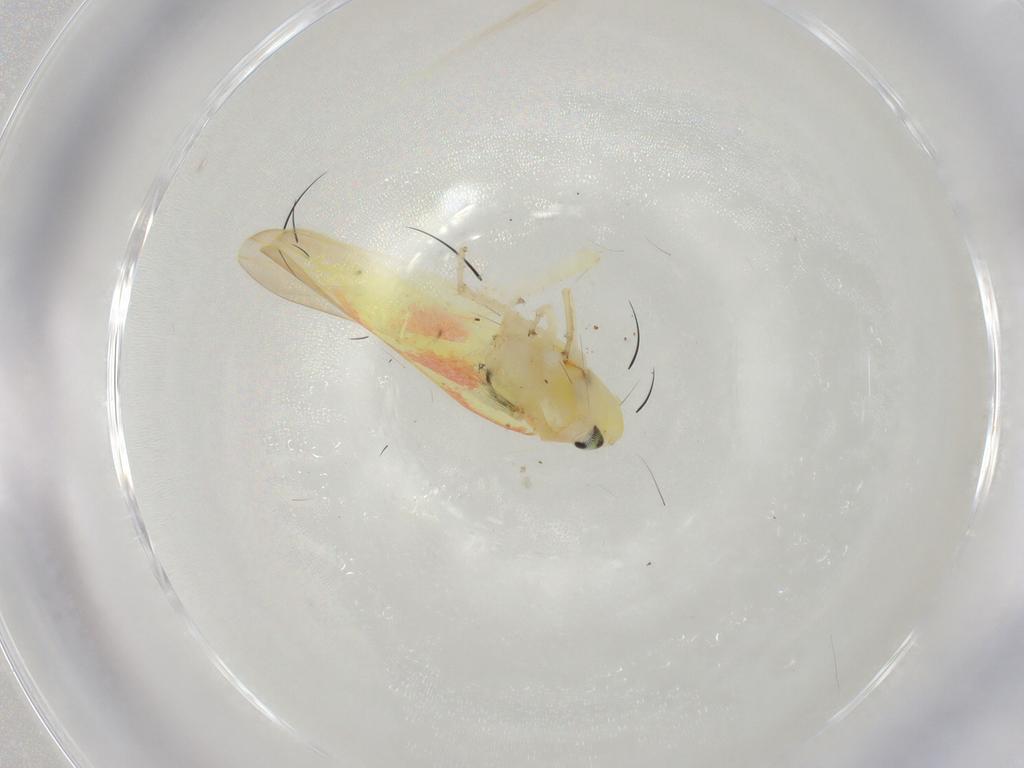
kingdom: Animalia
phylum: Arthropoda
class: Insecta
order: Hemiptera
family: Cicadellidae
